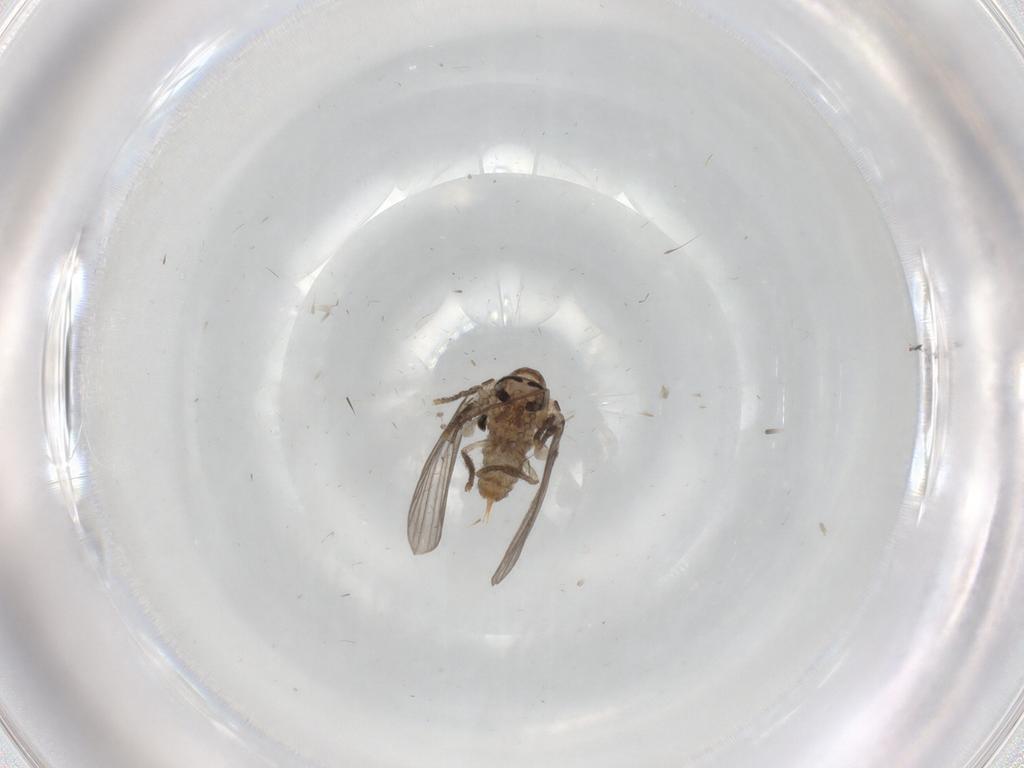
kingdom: Animalia
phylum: Arthropoda
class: Insecta
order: Diptera
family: Psychodidae
